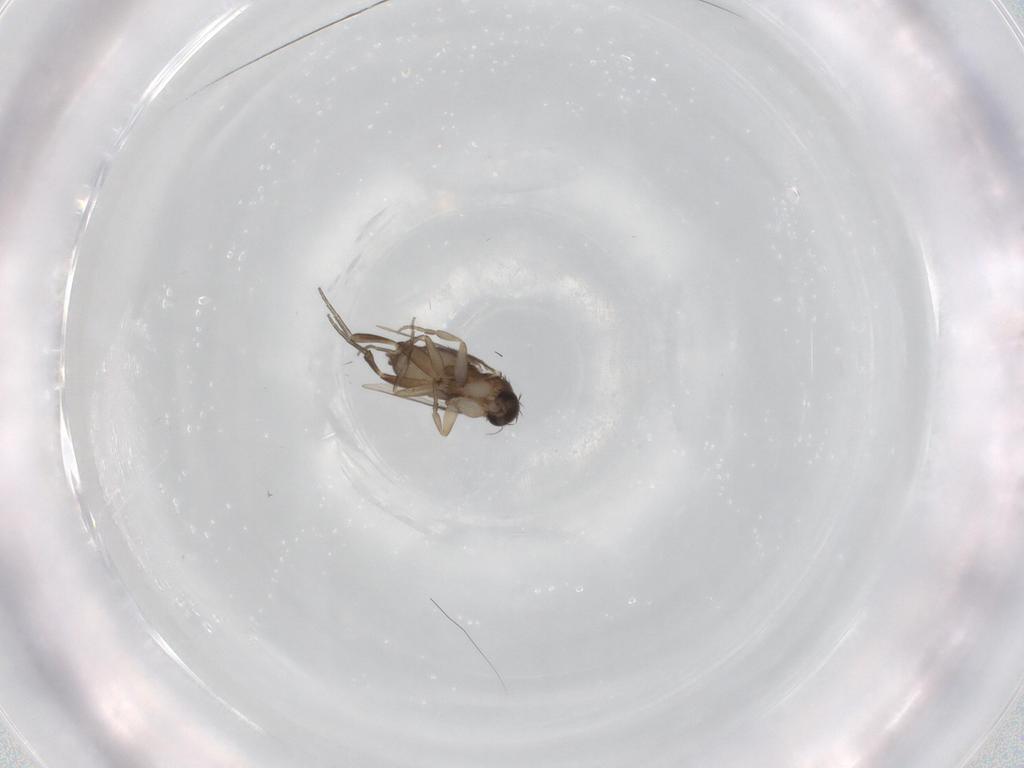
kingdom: Animalia
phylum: Arthropoda
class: Insecta
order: Diptera
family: Phoridae
